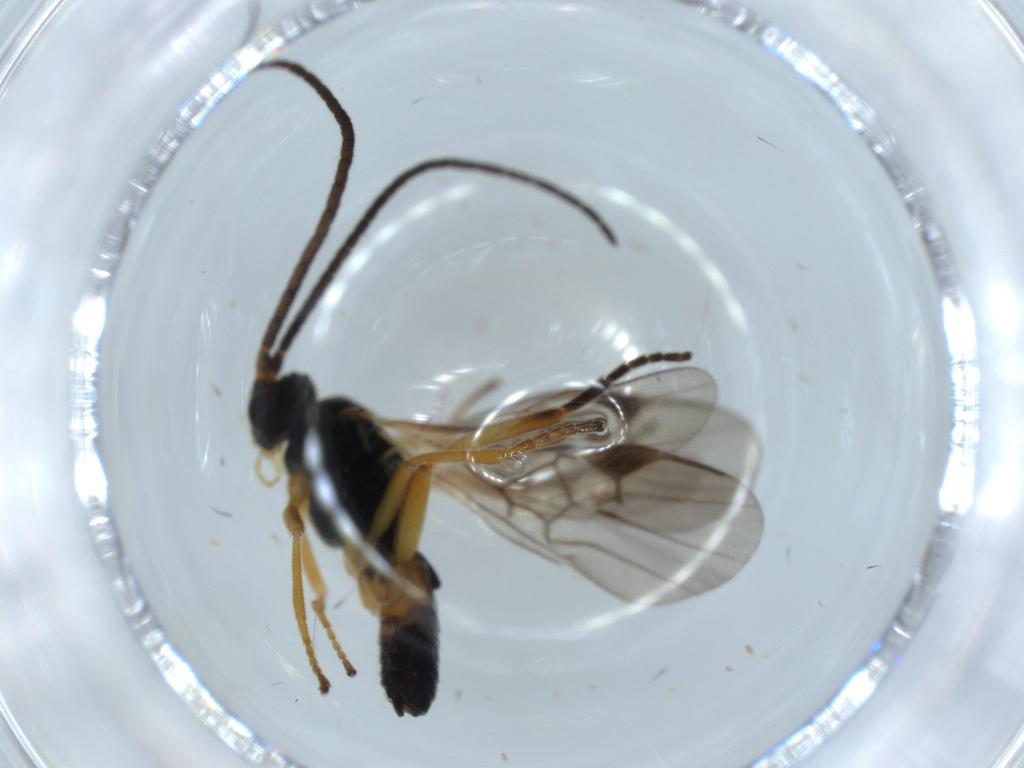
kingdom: Animalia
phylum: Arthropoda
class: Insecta
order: Hymenoptera
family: Braconidae
